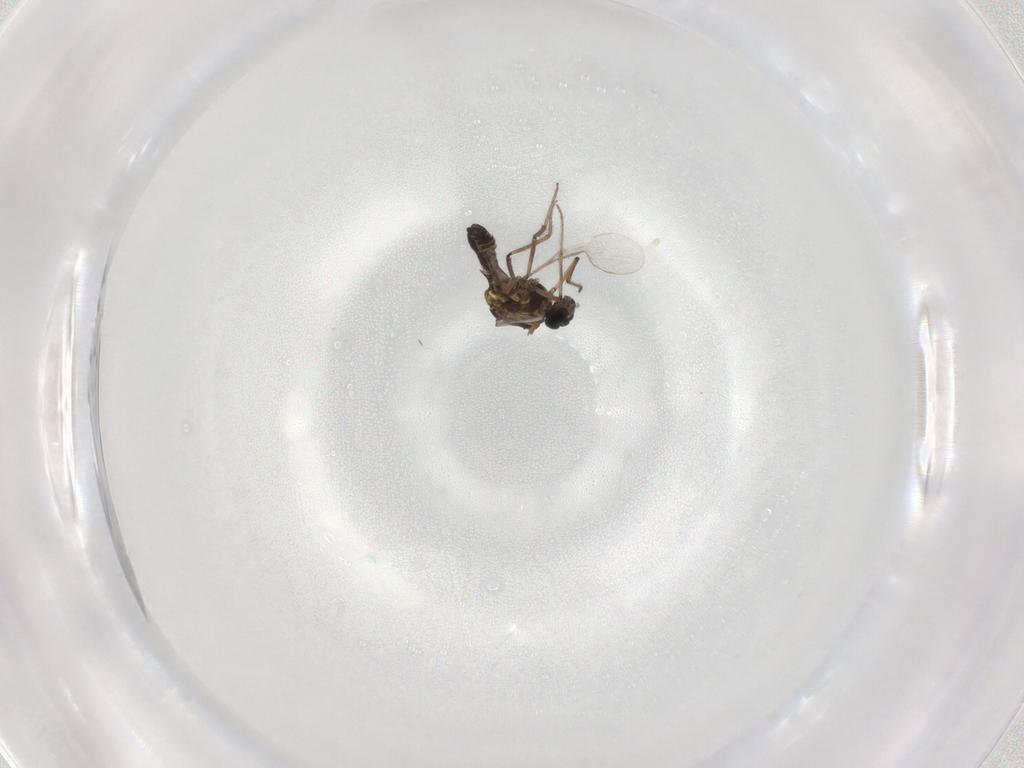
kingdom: Animalia
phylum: Arthropoda
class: Insecta
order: Diptera
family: Ceratopogonidae
